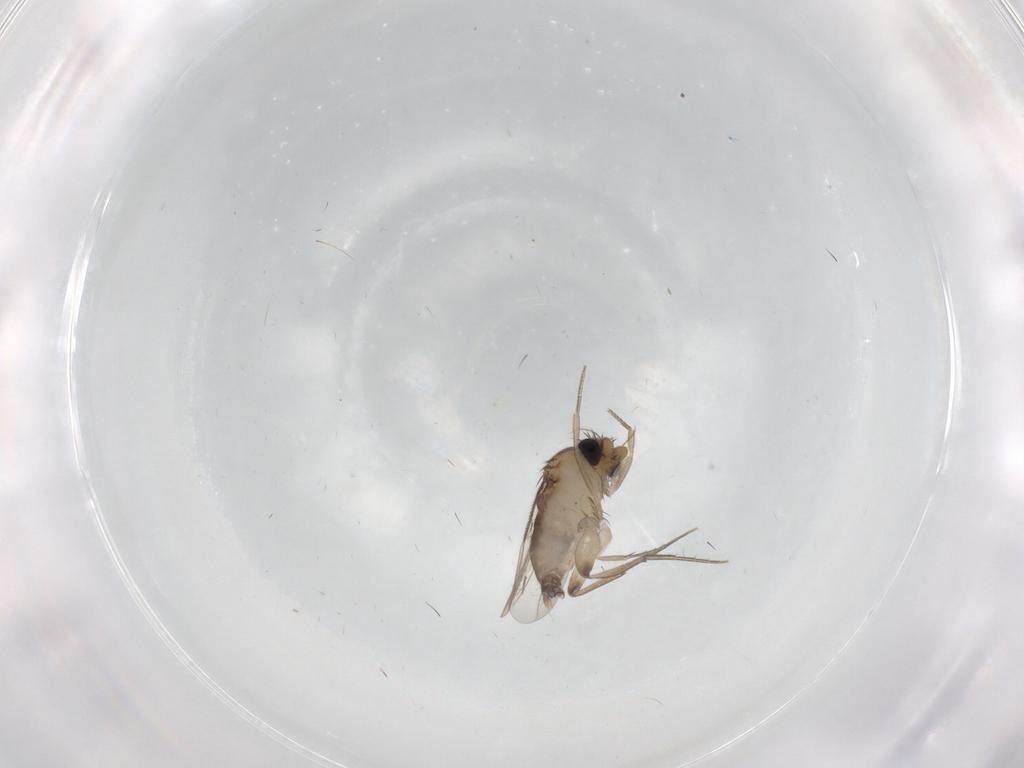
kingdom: Animalia
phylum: Arthropoda
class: Insecta
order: Diptera
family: Phoridae
